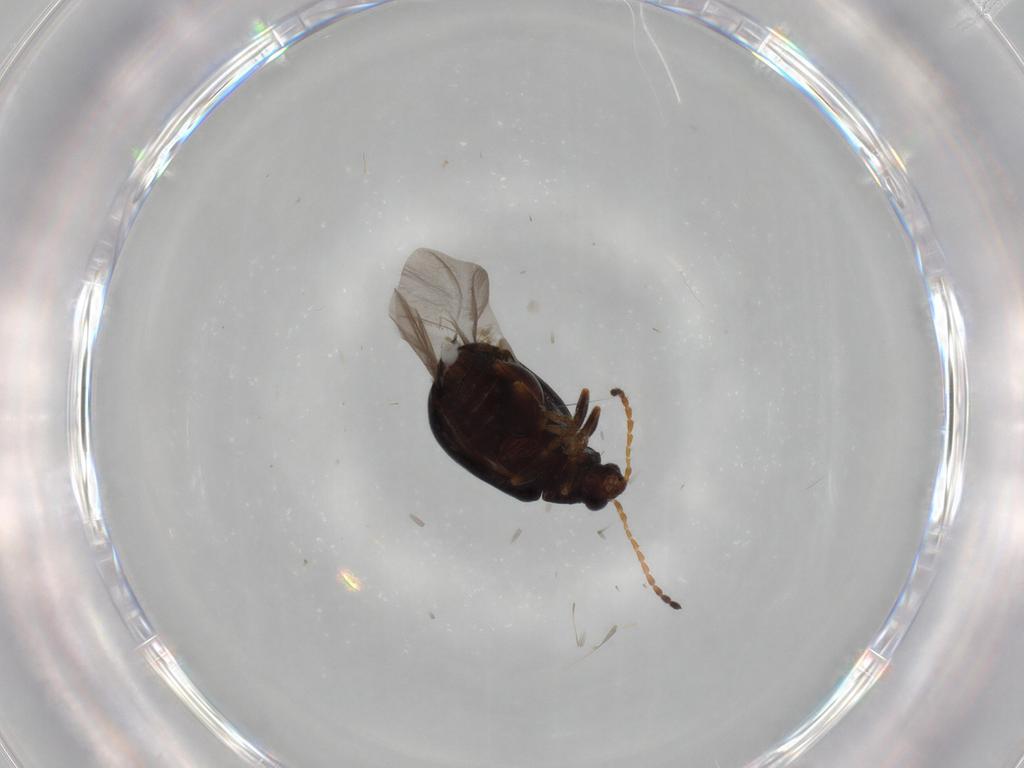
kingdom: Animalia
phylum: Arthropoda
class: Insecta
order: Coleoptera
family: Chrysomelidae
